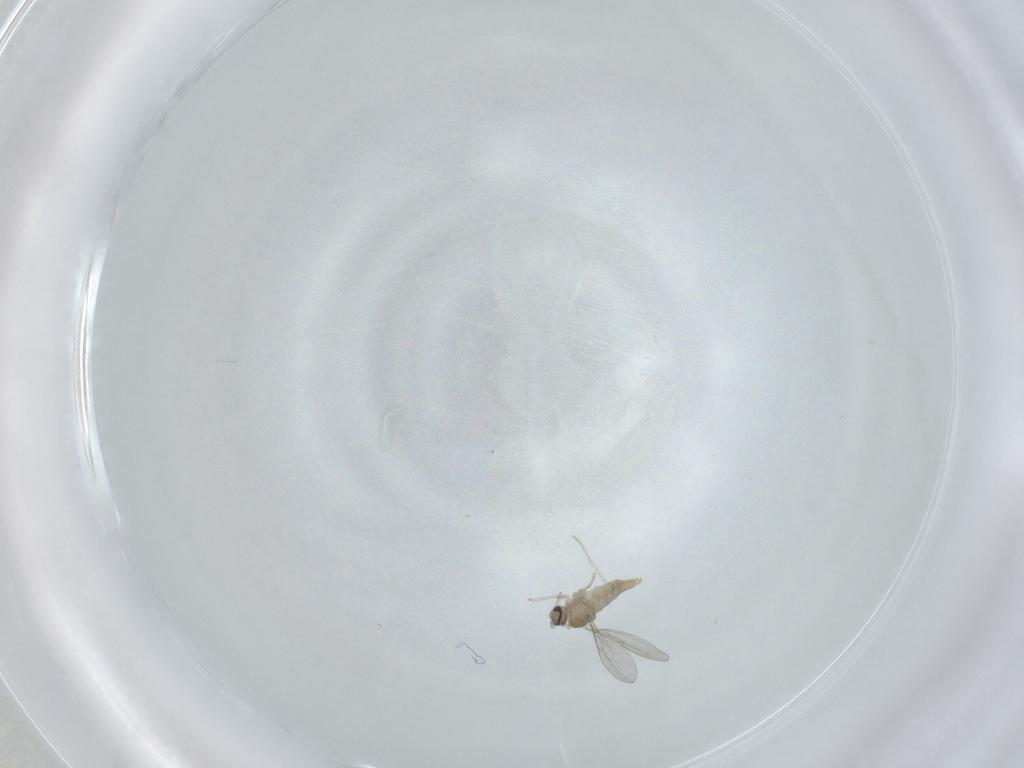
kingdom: Animalia
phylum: Arthropoda
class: Insecta
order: Diptera
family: Cecidomyiidae
